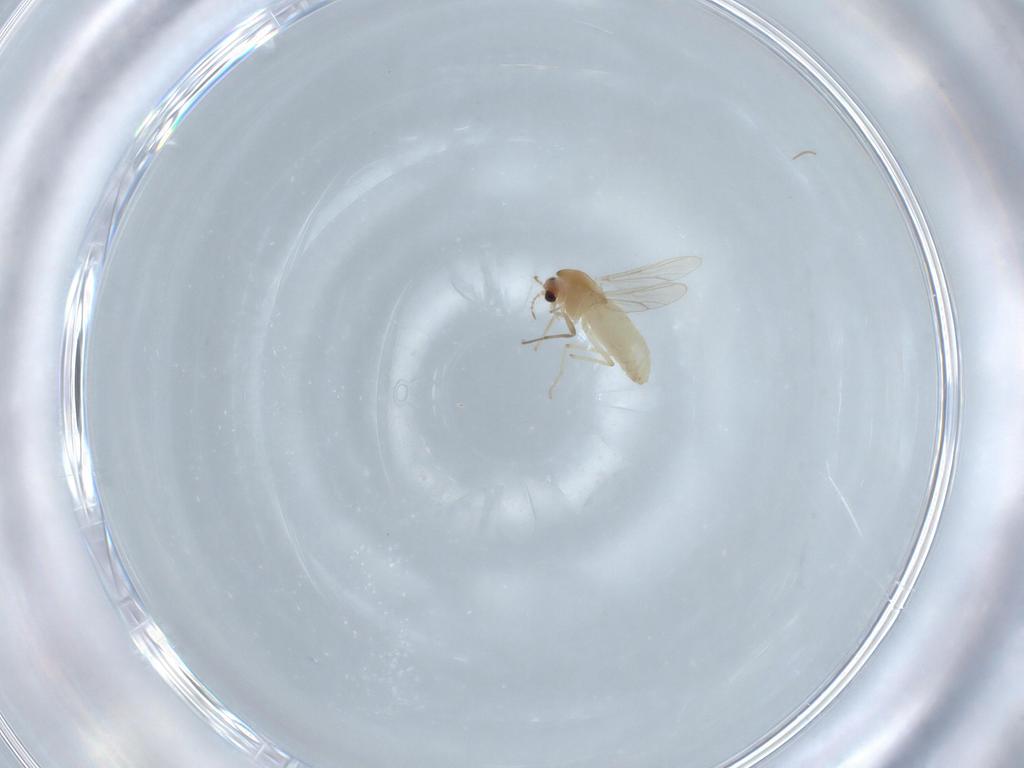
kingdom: Animalia
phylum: Arthropoda
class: Insecta
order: Diptera
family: Chironomidae
